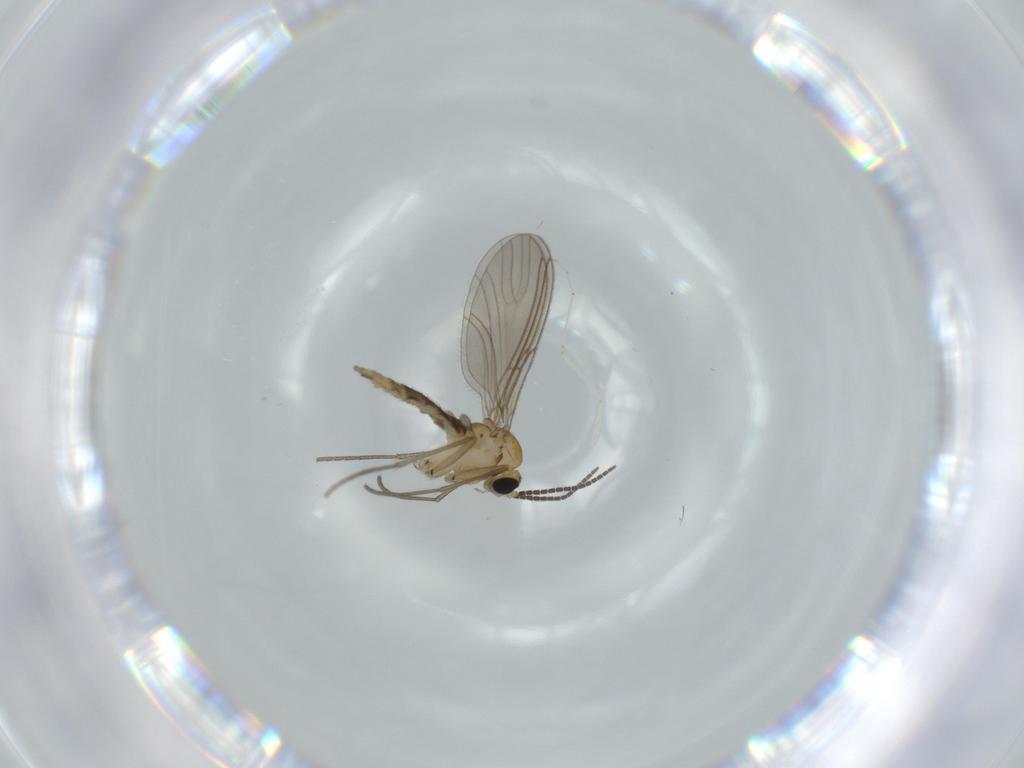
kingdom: Animalia
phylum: Arthropoda
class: Insecta
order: Diptera
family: Sciaridae
